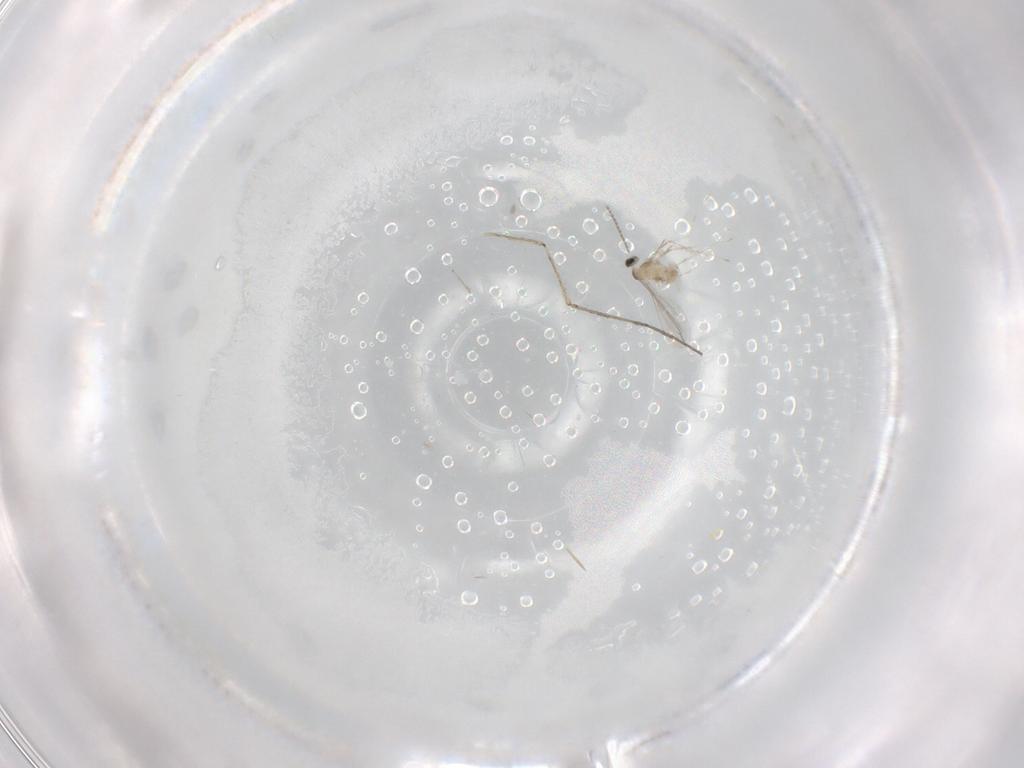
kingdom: Animalia
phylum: Arthropoda
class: Insecta
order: Diptera
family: Cecidomyiidae
